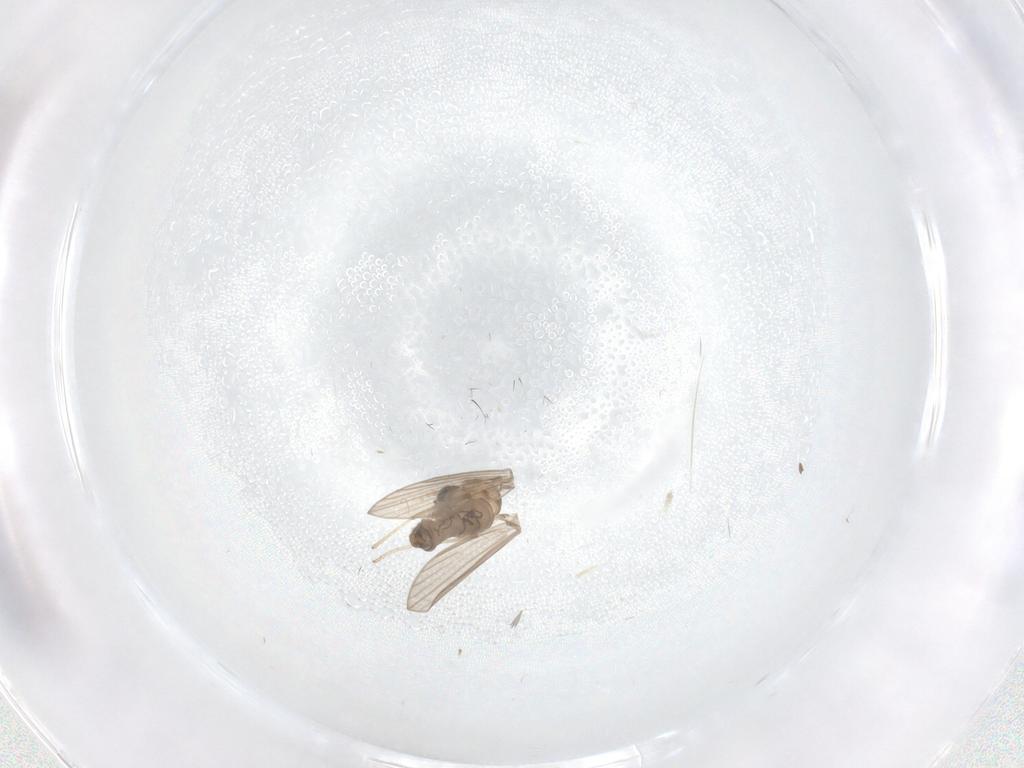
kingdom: Animalia
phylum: Arthropoda
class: Insecta
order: Diptera
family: Psychodidae
